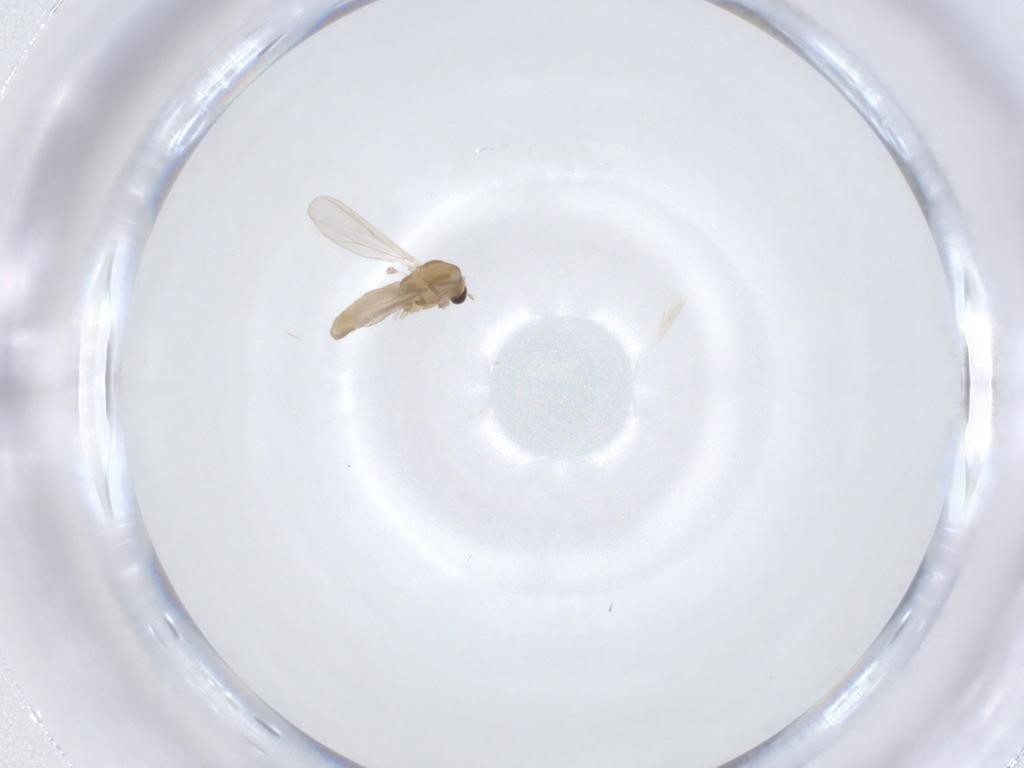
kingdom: Animalia
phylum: Arthropoda
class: Insecta
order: Diptera
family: Chironomidae
